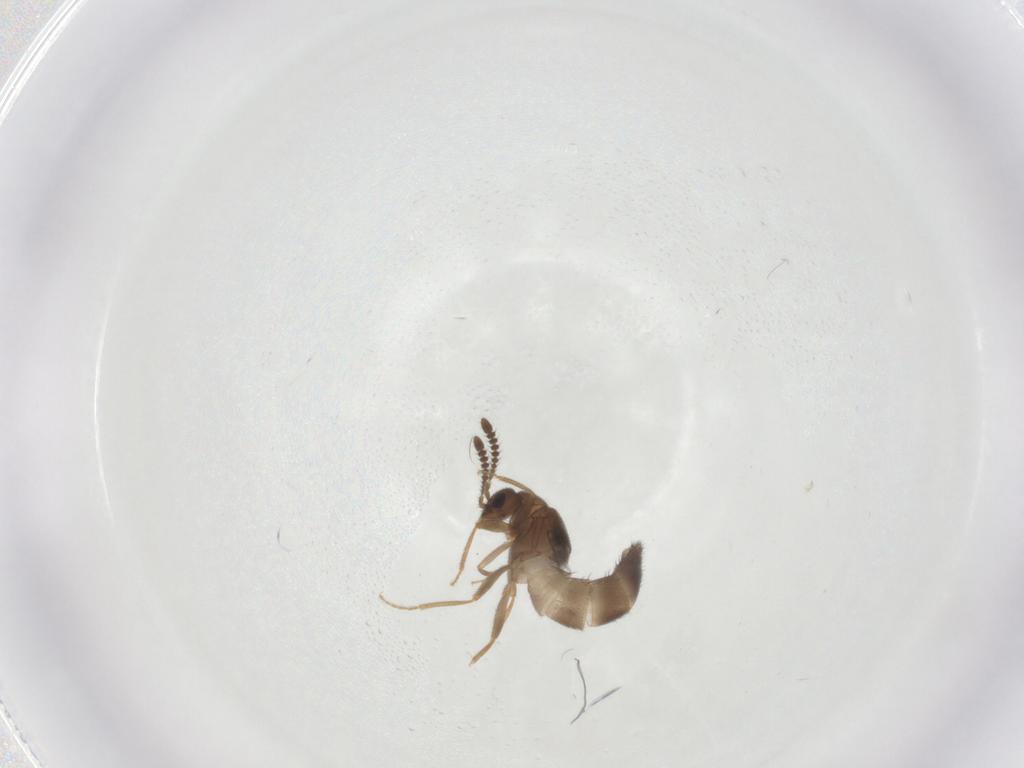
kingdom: Animalia
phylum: Arthropoda
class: Insecta
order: Coleoptera
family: Staphylinidae
